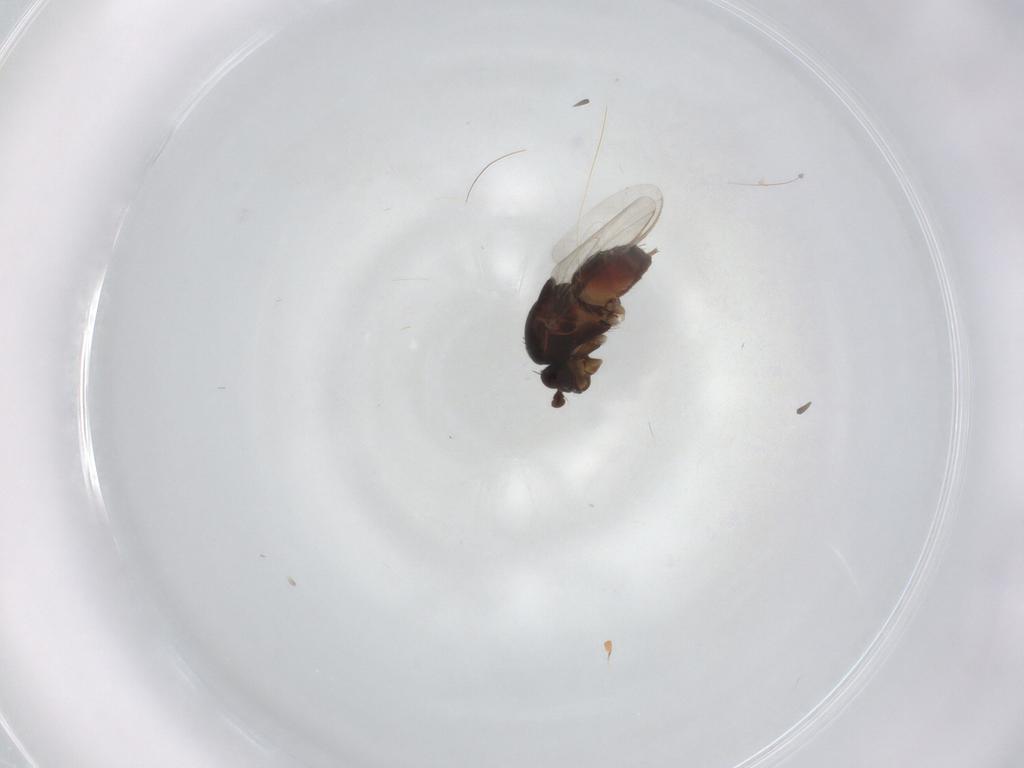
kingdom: Animalia
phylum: Arthropoda
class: Insecta
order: Diptera
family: Sphaeroceridae
